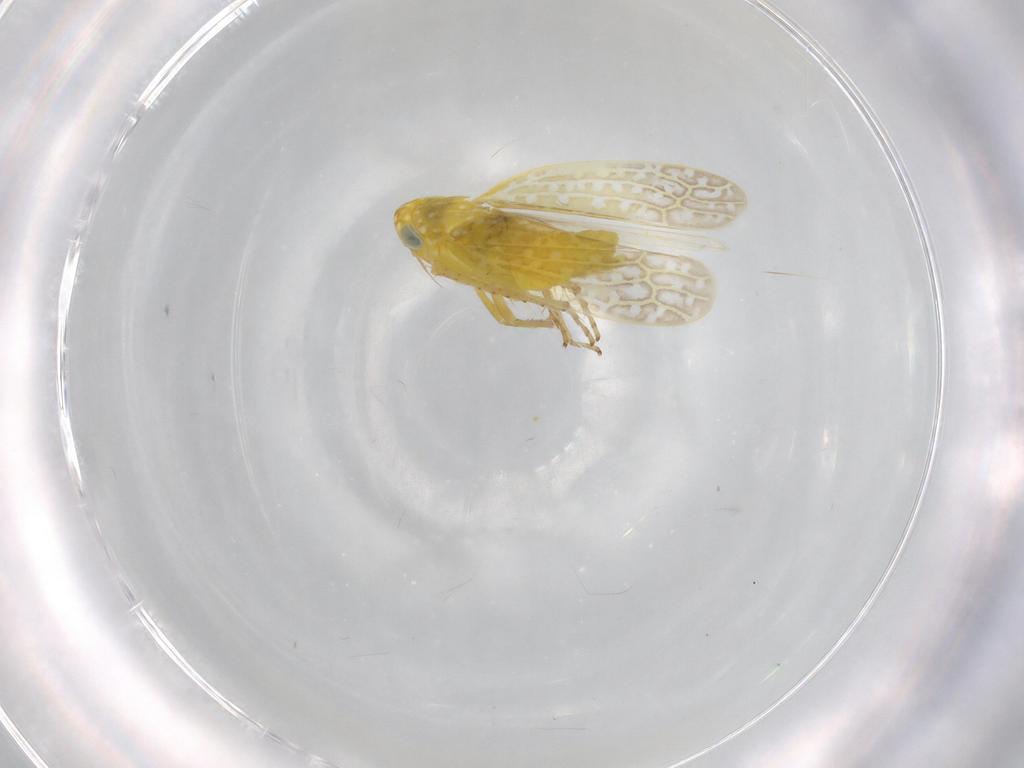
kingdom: Animalia
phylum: Arthropoda
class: Insecta
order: Hemiptera
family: Cicadellidae
